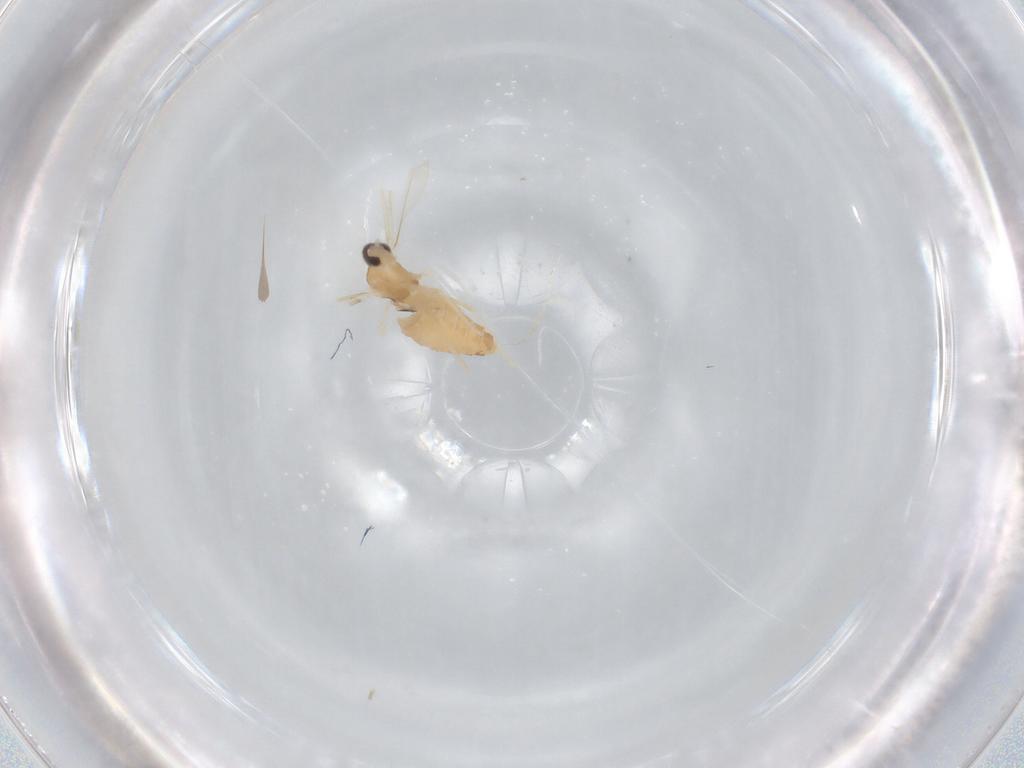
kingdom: Animalia
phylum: Arthropoda
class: Insecta
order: Diptera
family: Cecidomyiidae
